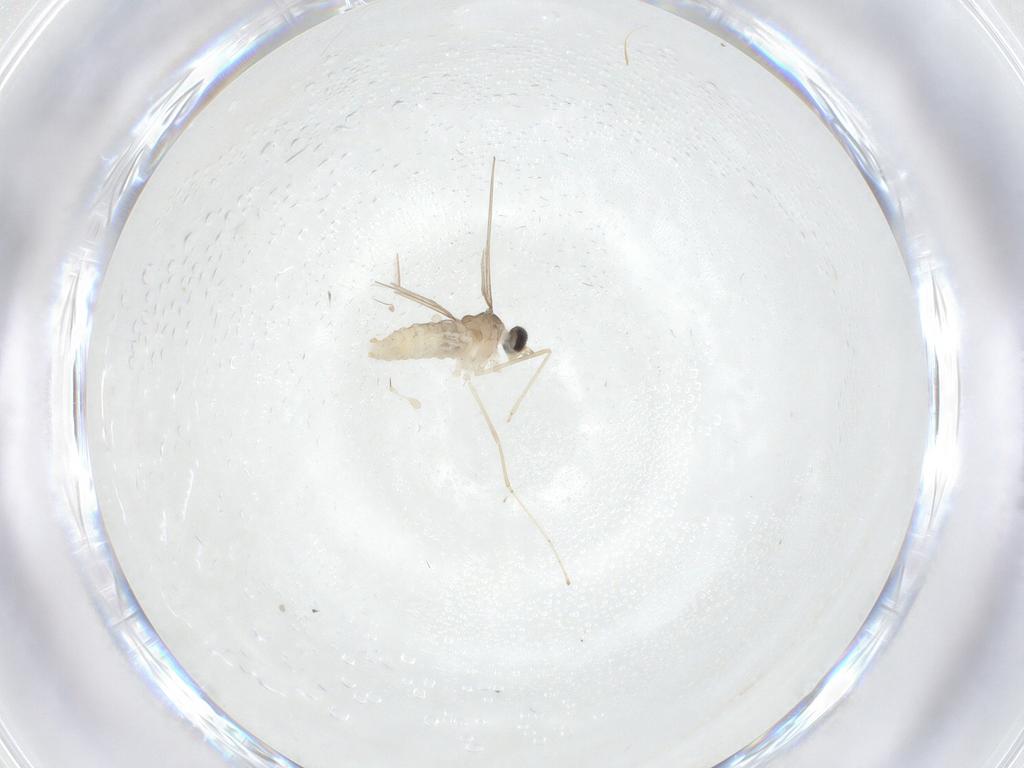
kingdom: Animalia
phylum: Arthropoda
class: Insecta
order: Diptera
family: Cecidomyiidae
